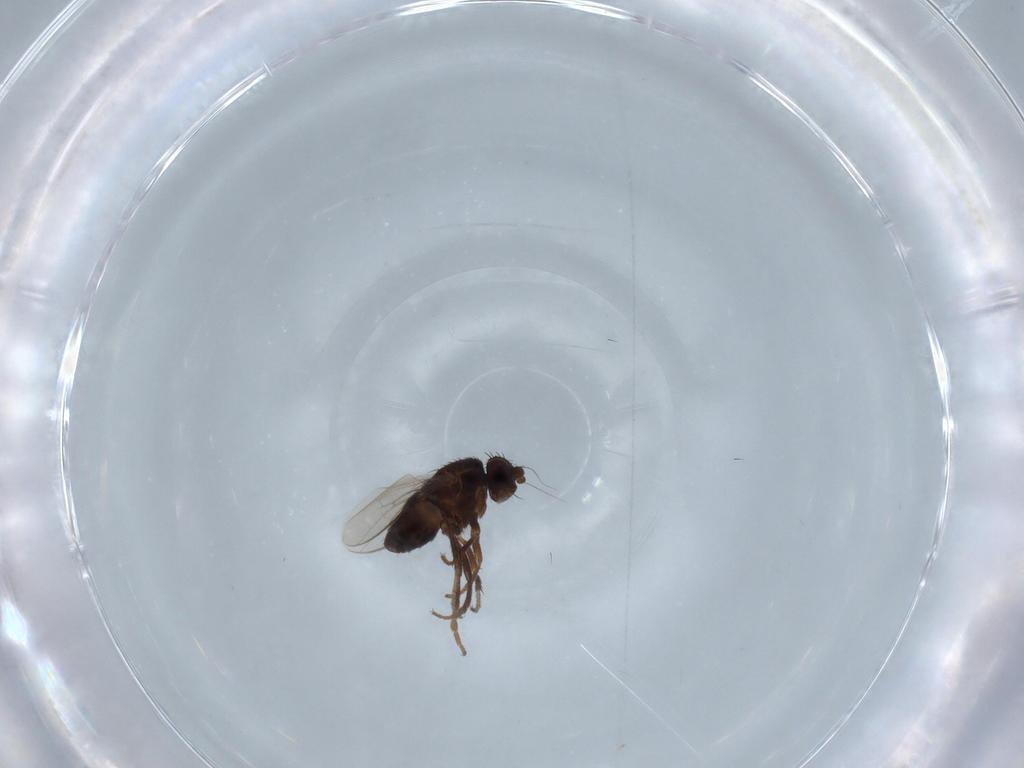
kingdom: Animalia
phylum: Arthropoda
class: Insecta
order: Diptera
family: Sphaeroceridae
